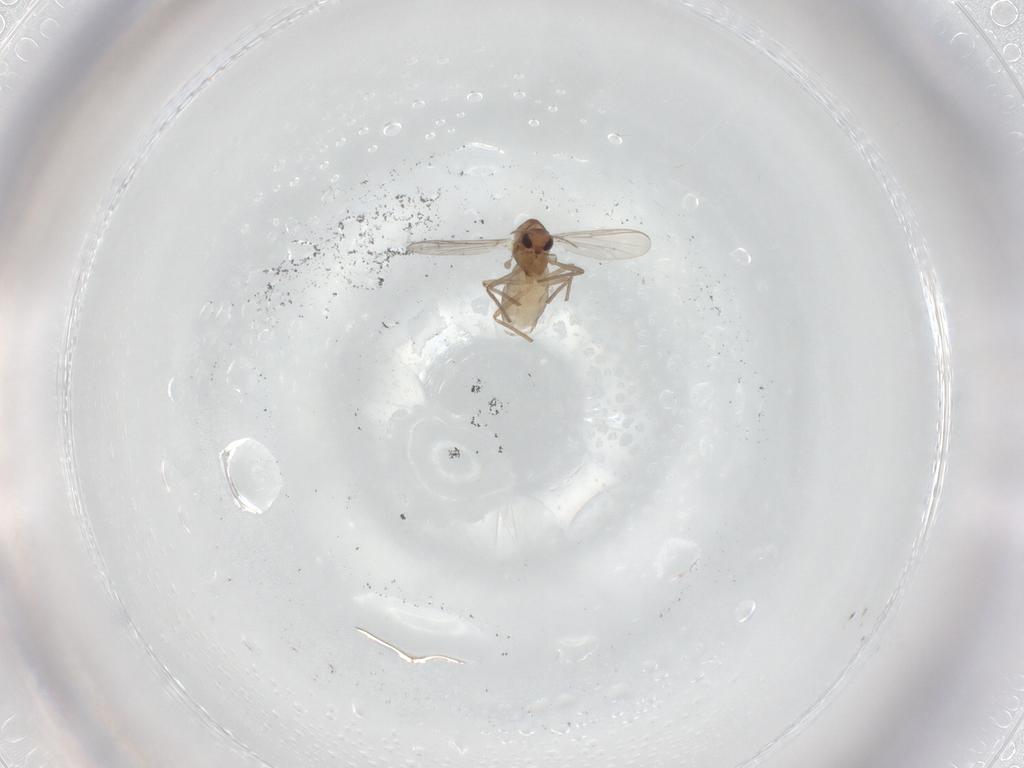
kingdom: Animalia
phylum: Arthropoda
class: Insecta
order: Diptera
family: Chironomidae
